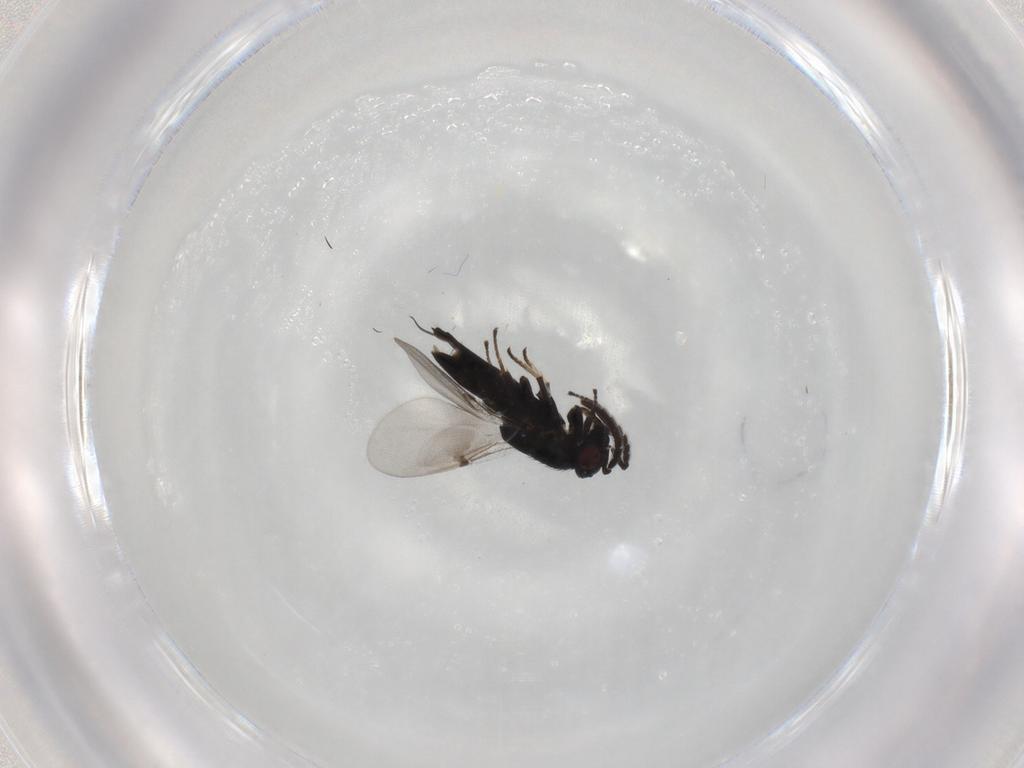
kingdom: Animalia
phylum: Arthropoda
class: Insecta
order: Hymenoptera
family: Encyrtidae
